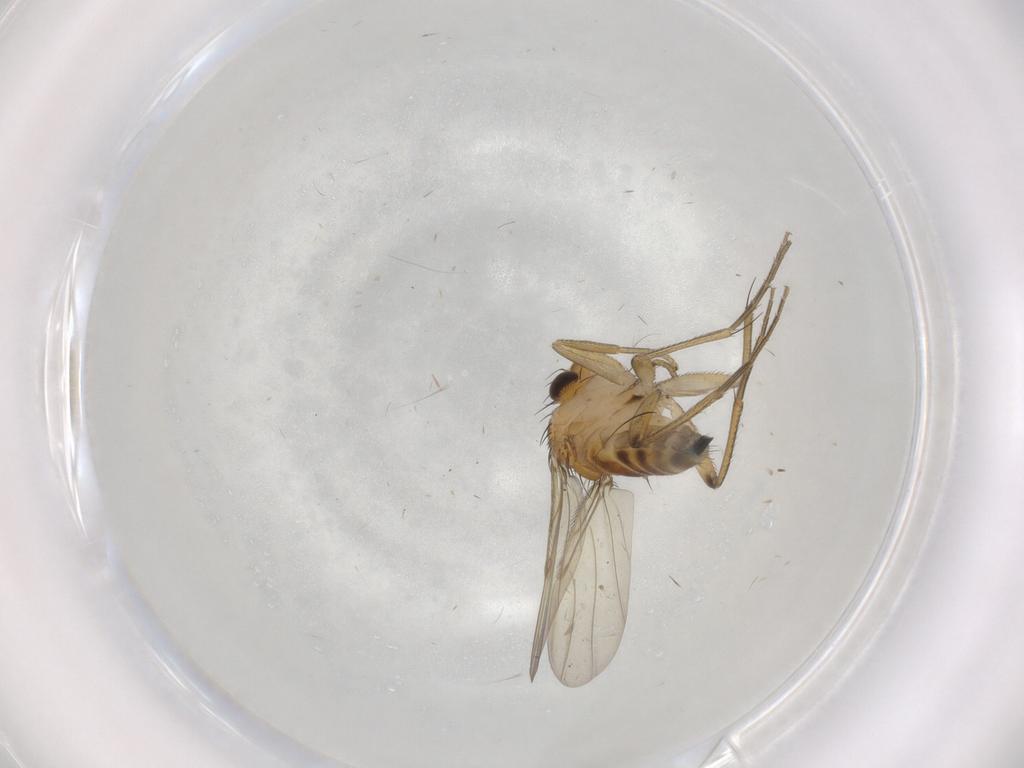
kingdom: Animalia
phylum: Arthropoda
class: Insecta
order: Diptera
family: Phoridae
